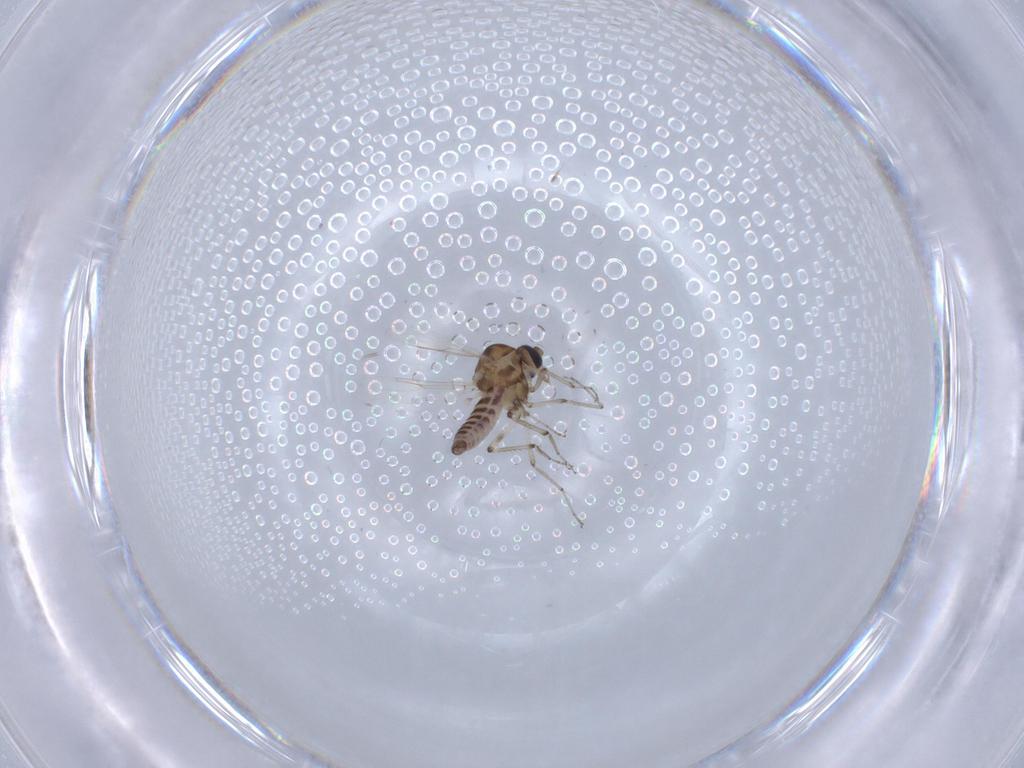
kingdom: Animalia
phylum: Arthropoda
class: Insecta
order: Diptera
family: Ceratopogonidae
